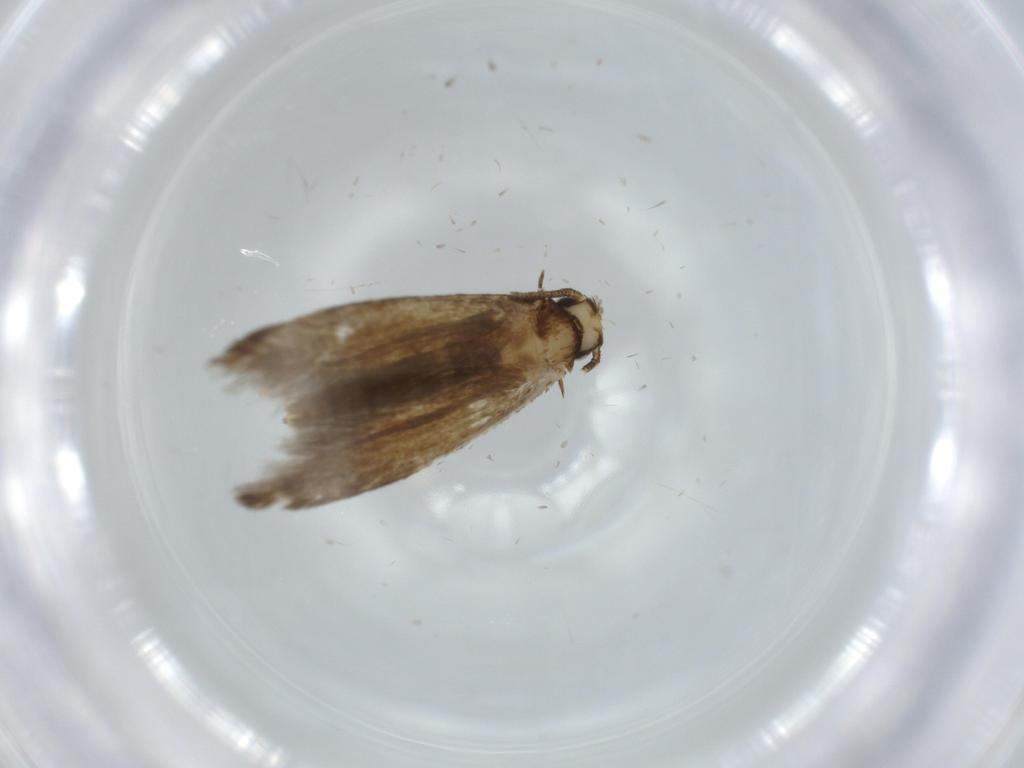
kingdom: Animalia
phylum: Arthropoda
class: Insecta
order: Lepidoptera
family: Tineidae
